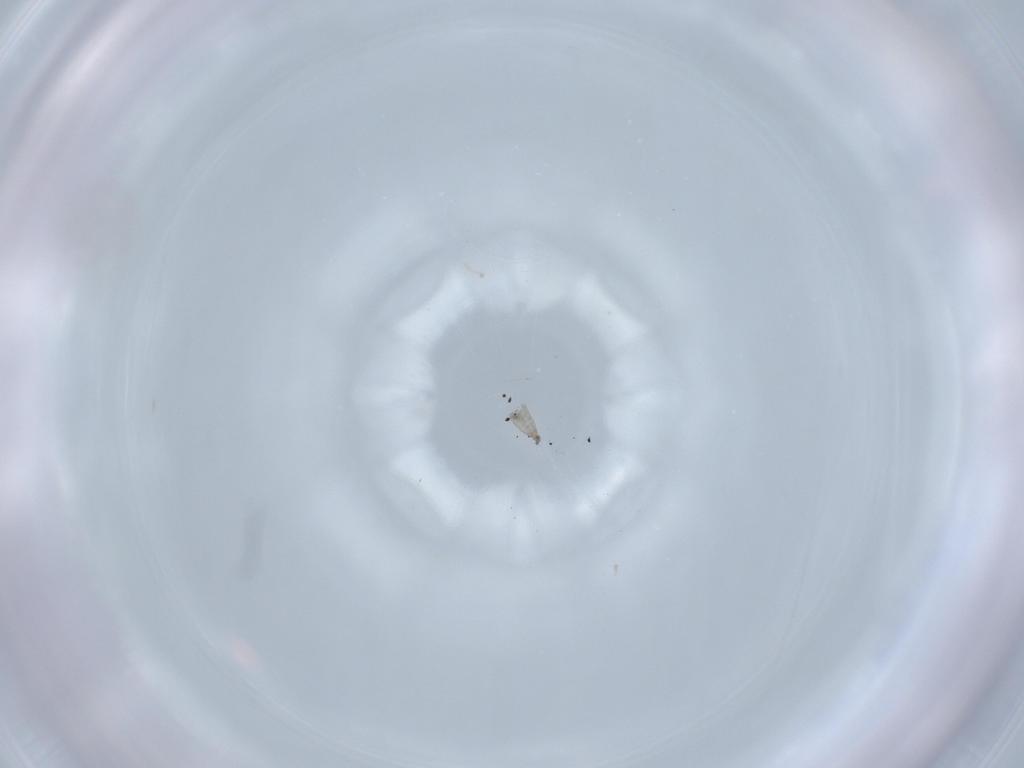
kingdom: Animalia
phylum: Arthropoda
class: Insecta
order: Diptera
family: Cecidomyiidae
